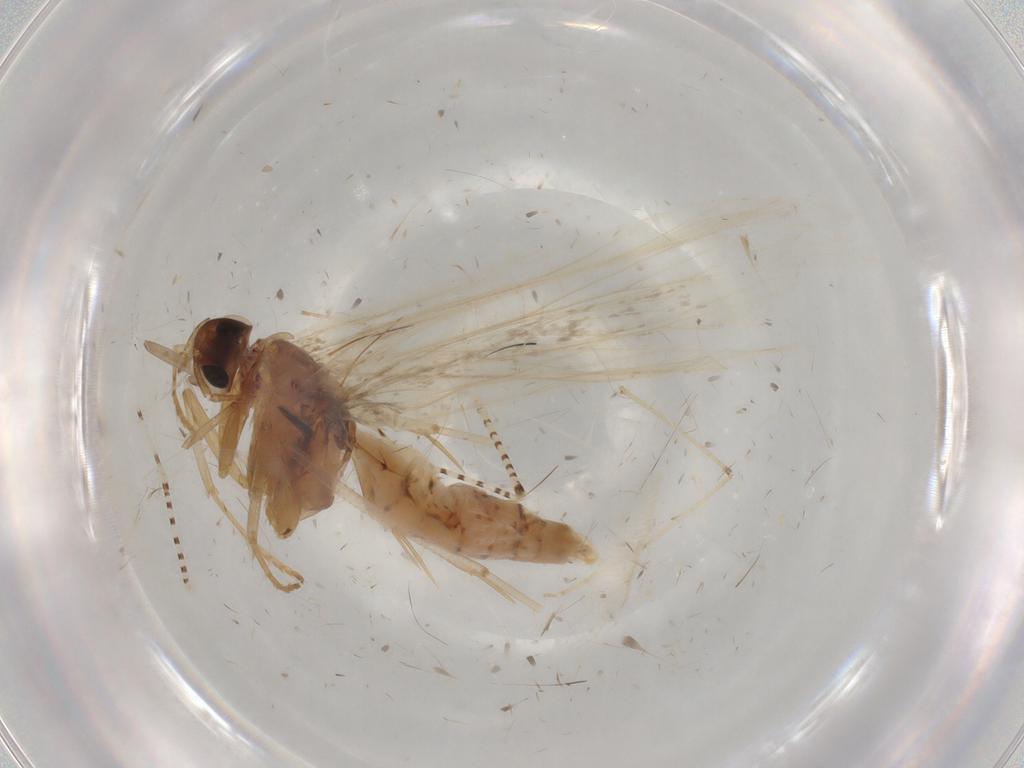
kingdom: Animalia
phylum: Arthropoda
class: Insecta
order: Lepidoptera
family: Gelechiidae
